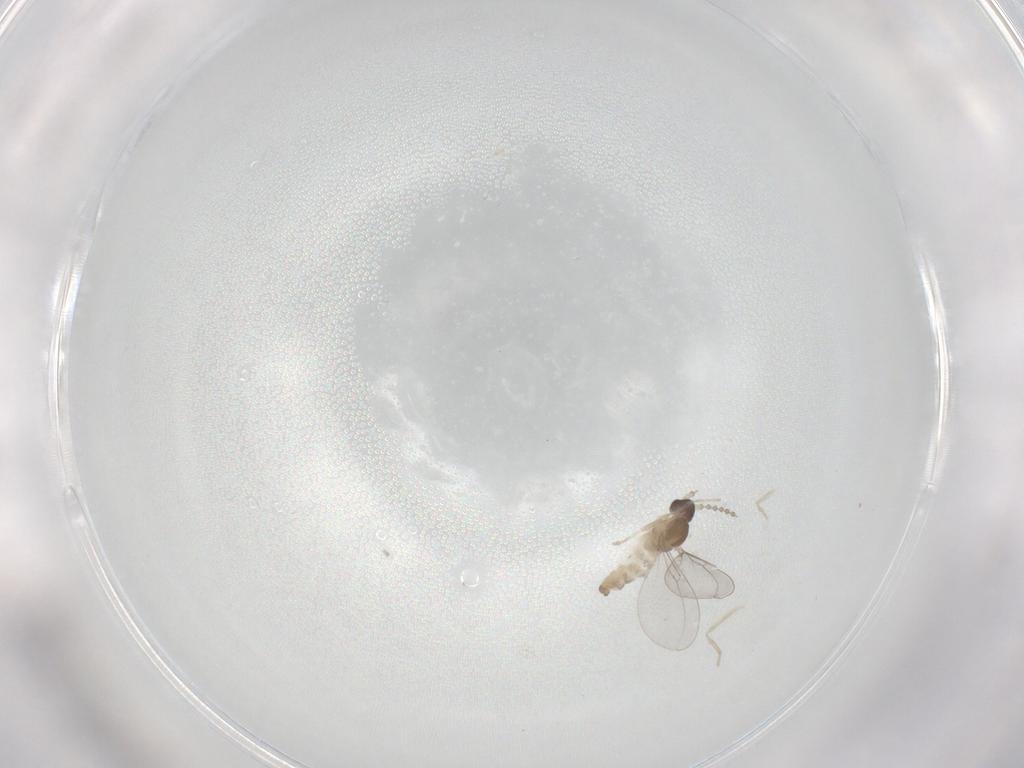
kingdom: Animalia
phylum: Arthropoda
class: Insecta
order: Diptera
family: Cecidomyiidae
